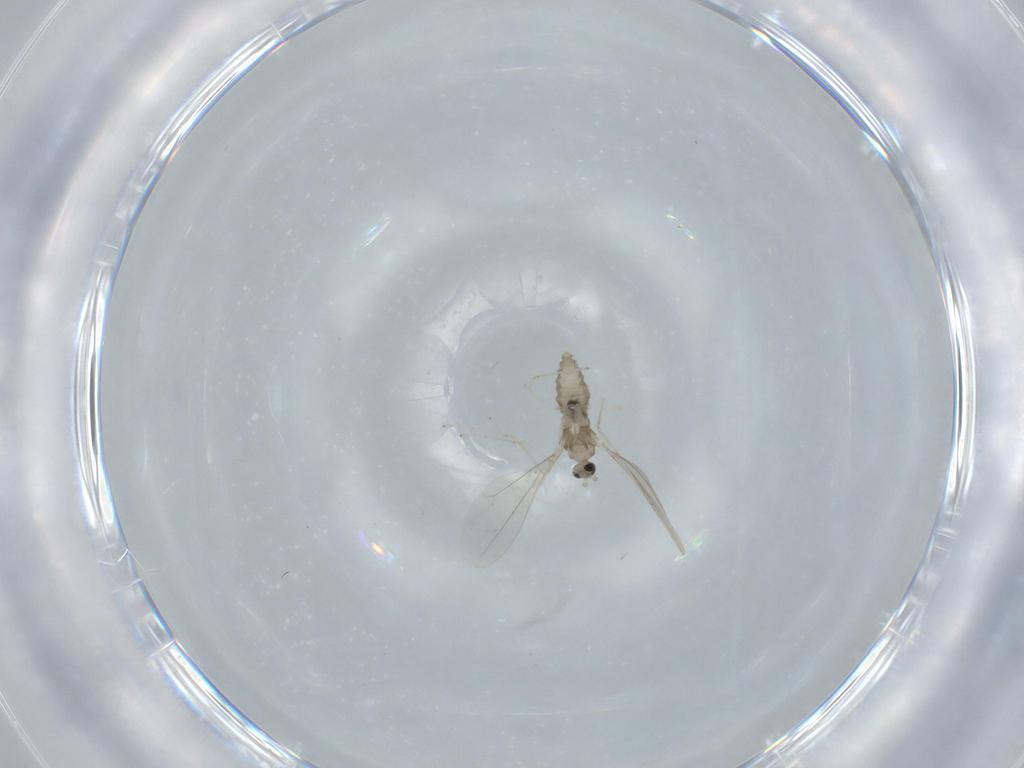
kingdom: Animalia
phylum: Arthropoda
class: Insecta
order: Diptera
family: Cecidomyiidae
